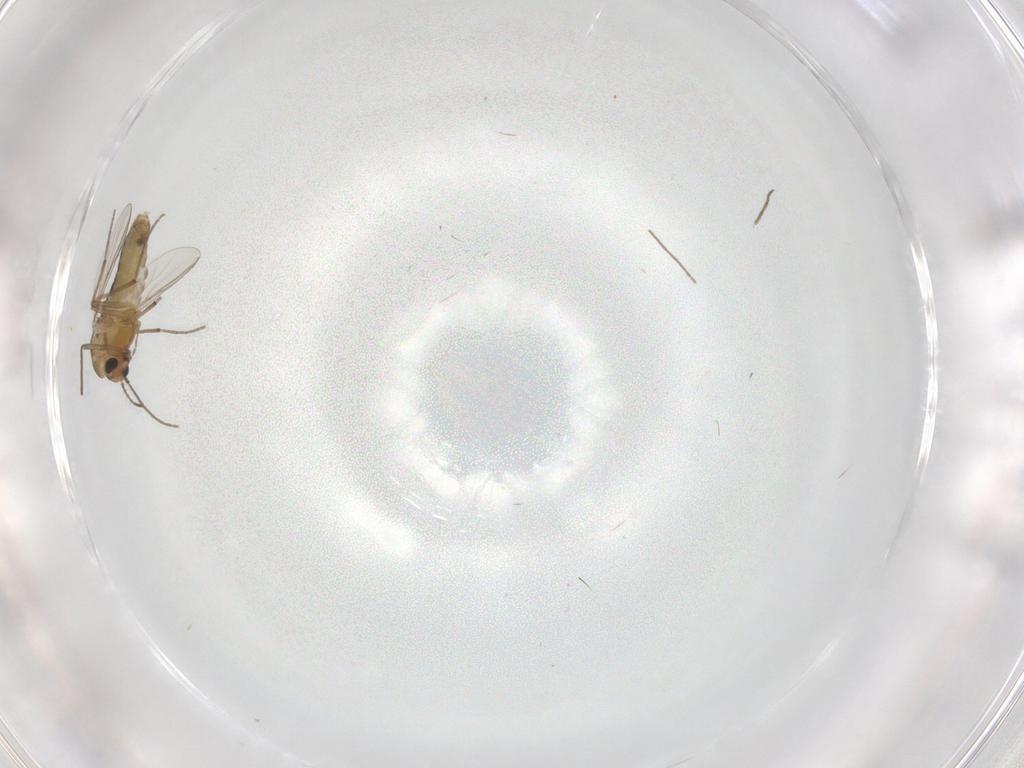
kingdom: Animalia
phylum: Arthropoda
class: Insecta
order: Diptera
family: Chironomidae
